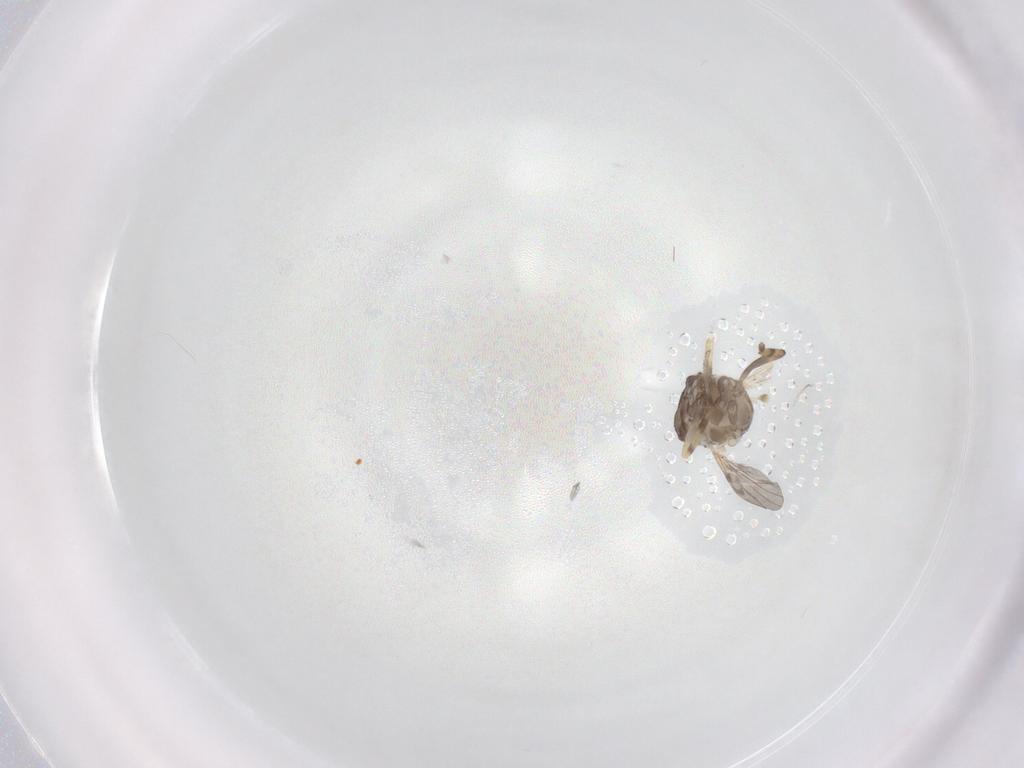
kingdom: Animalia
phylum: Arthropoda
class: Insecta
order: Diptera
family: Ceratopogonidae
